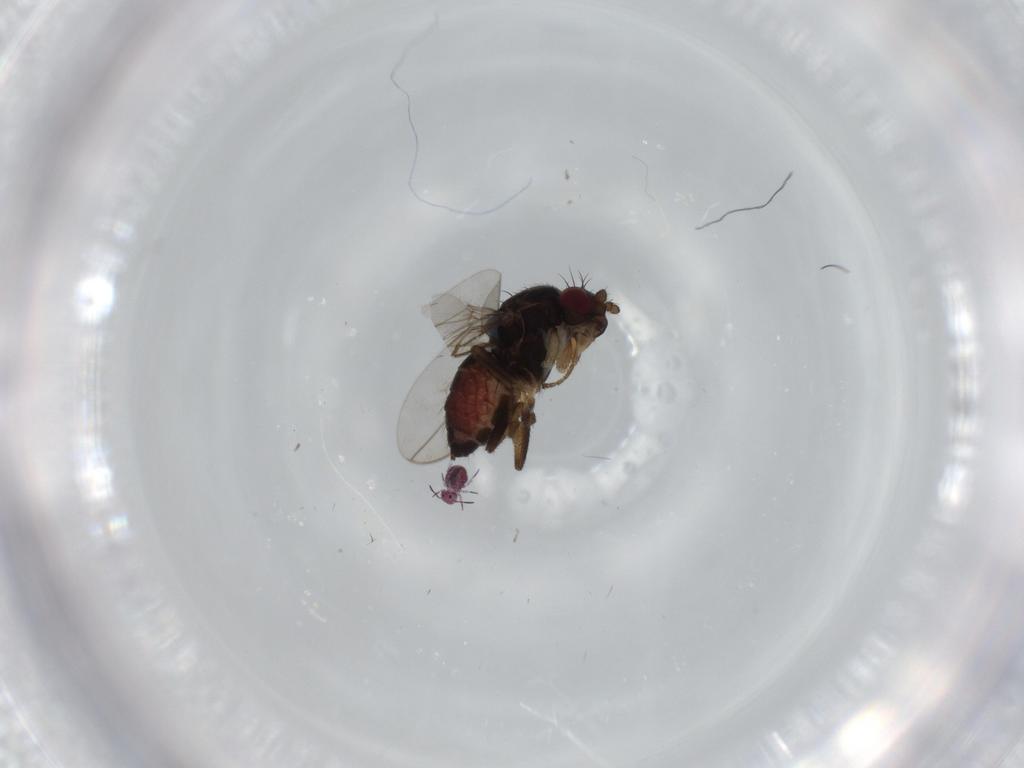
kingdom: Animalia
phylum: Arthropoda
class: Insecta
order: Diptera
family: Sphaeroceridae
